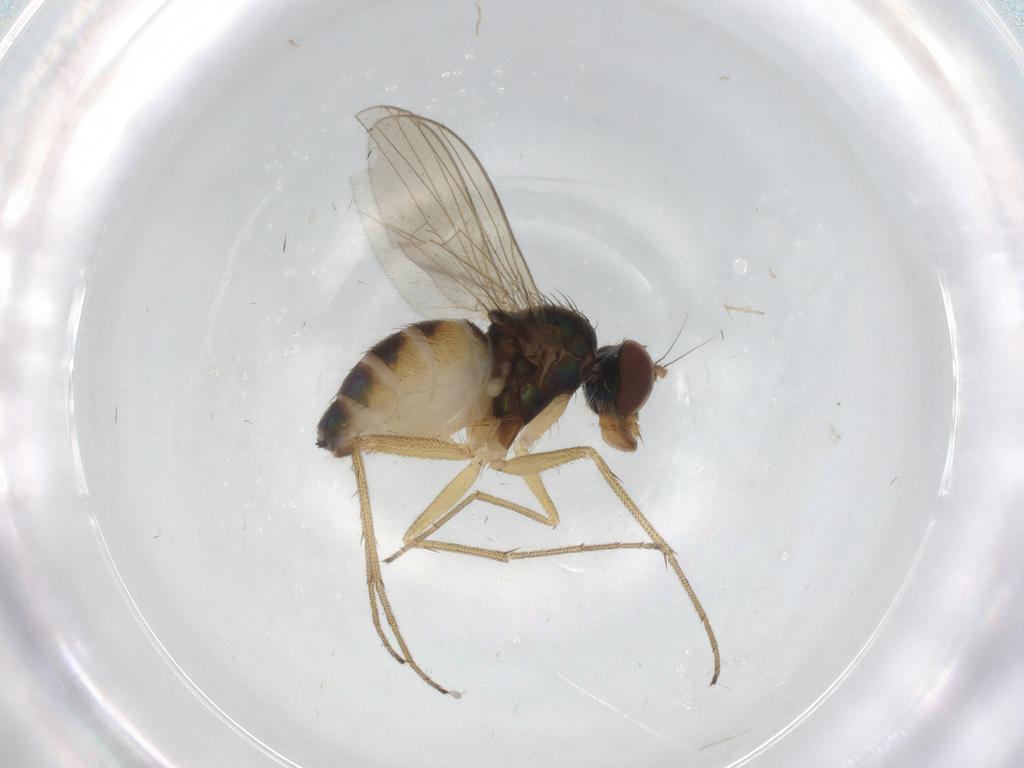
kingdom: Animalia
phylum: Arthropoda
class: Insecta
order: Diptera
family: Dolichopodidae
